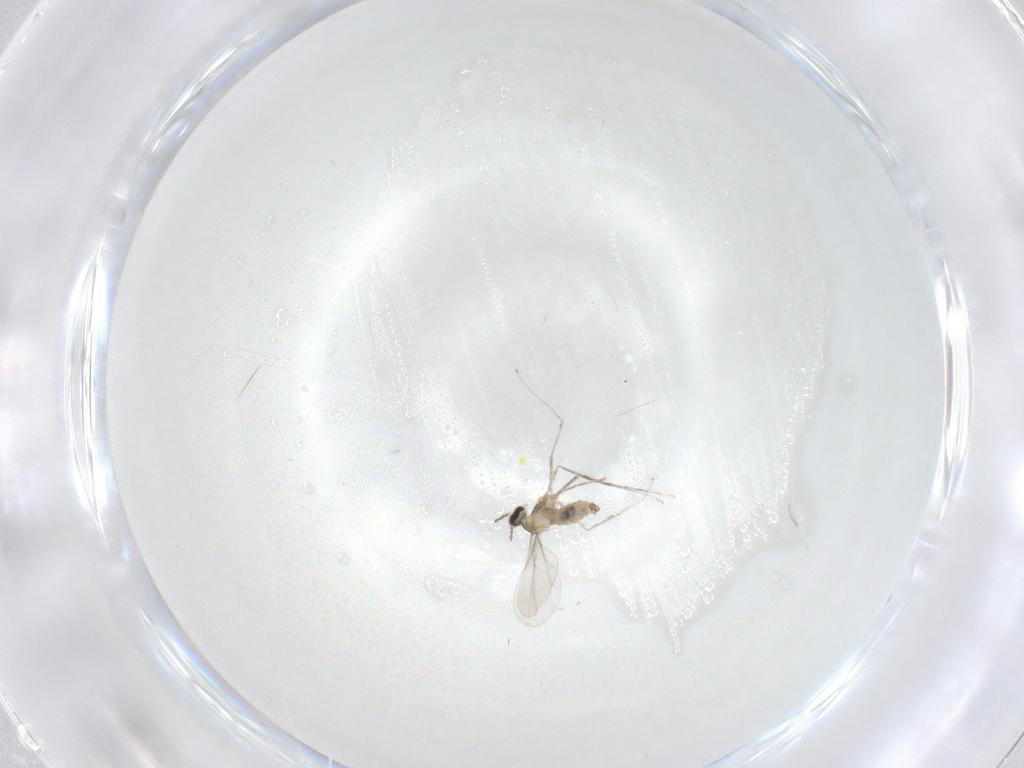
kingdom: Animalia
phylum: Arthropoda
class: Insecta
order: Diptera
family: Cecidomyiidae
